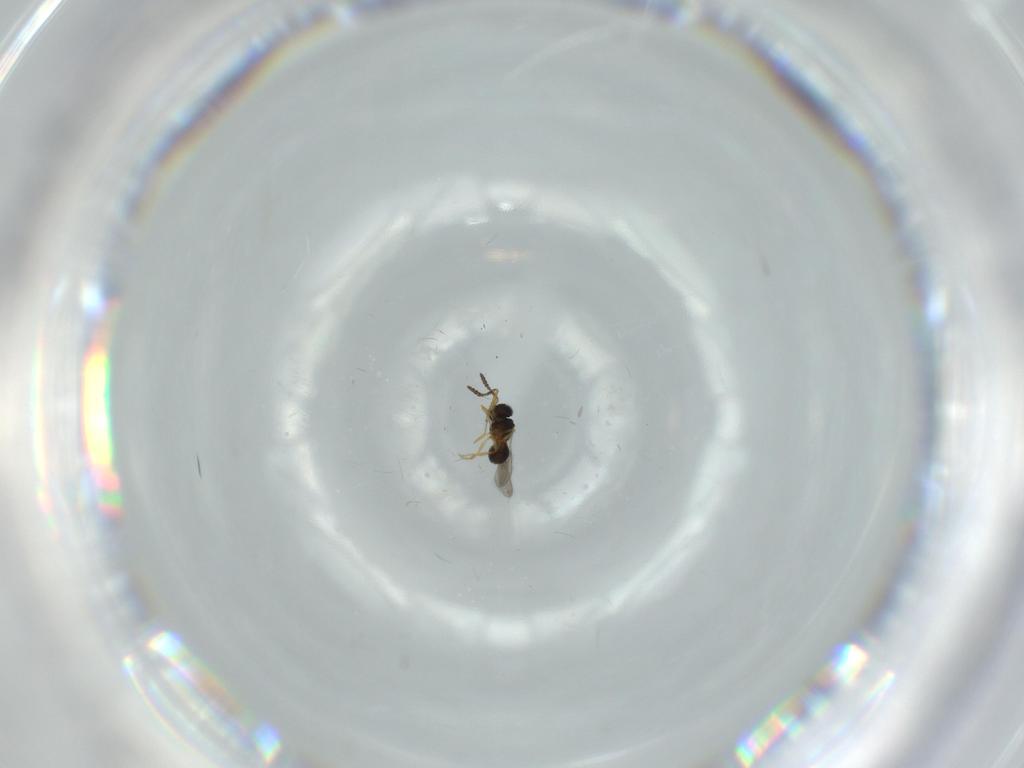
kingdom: Animalia
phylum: Arthropoda
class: Insecta
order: Hymenoptera
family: Scelionidae
